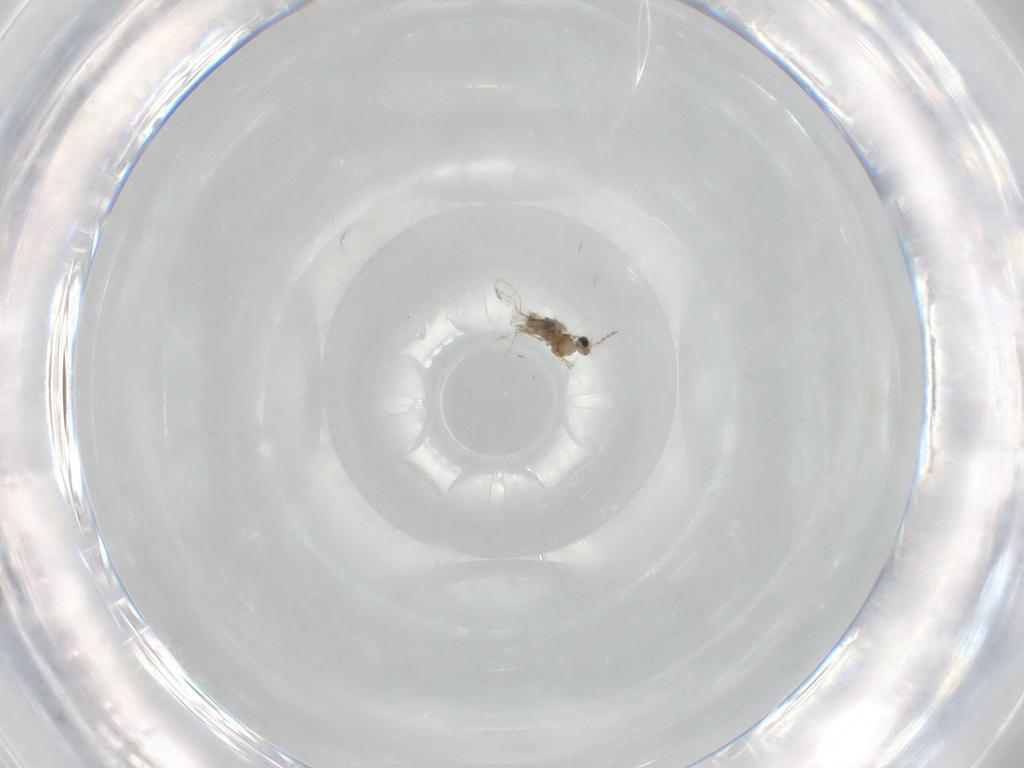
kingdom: Animalia
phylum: Arthropoda
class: Insecta
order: Diptera
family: Cecidomyiidae
